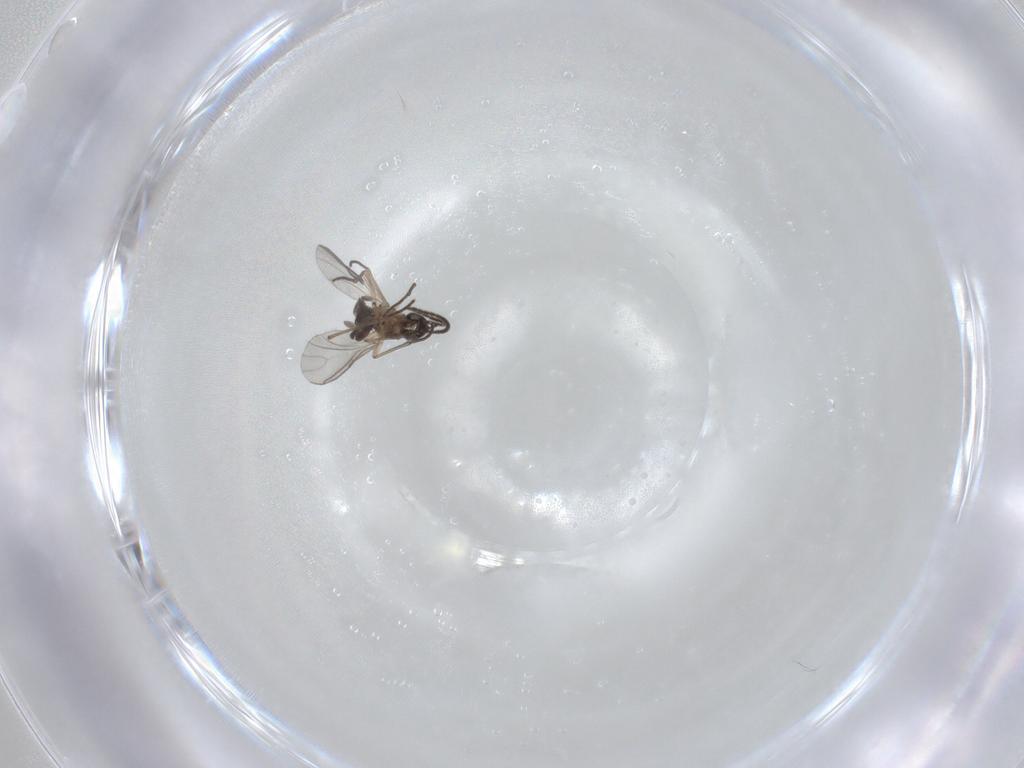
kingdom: Animalia
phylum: Arthropoda
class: Insecta
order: Diptera
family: Sciaridae
